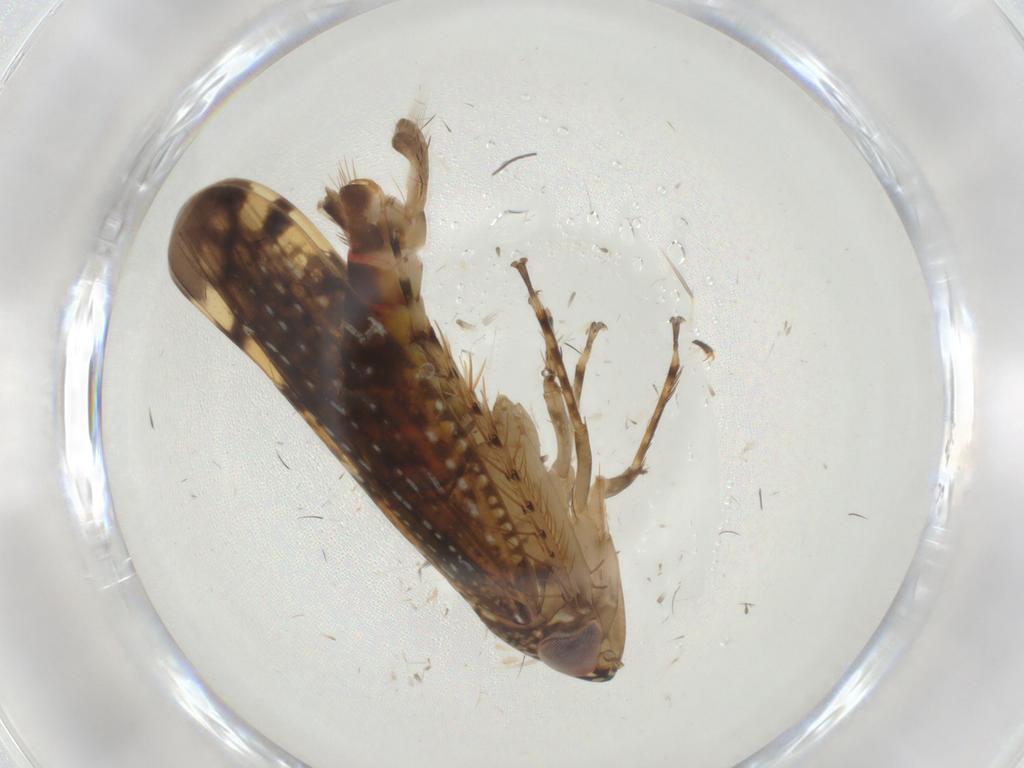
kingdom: Animalia
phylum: Arthropoda
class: Insecta
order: Hemiptera
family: Cicadellidae
